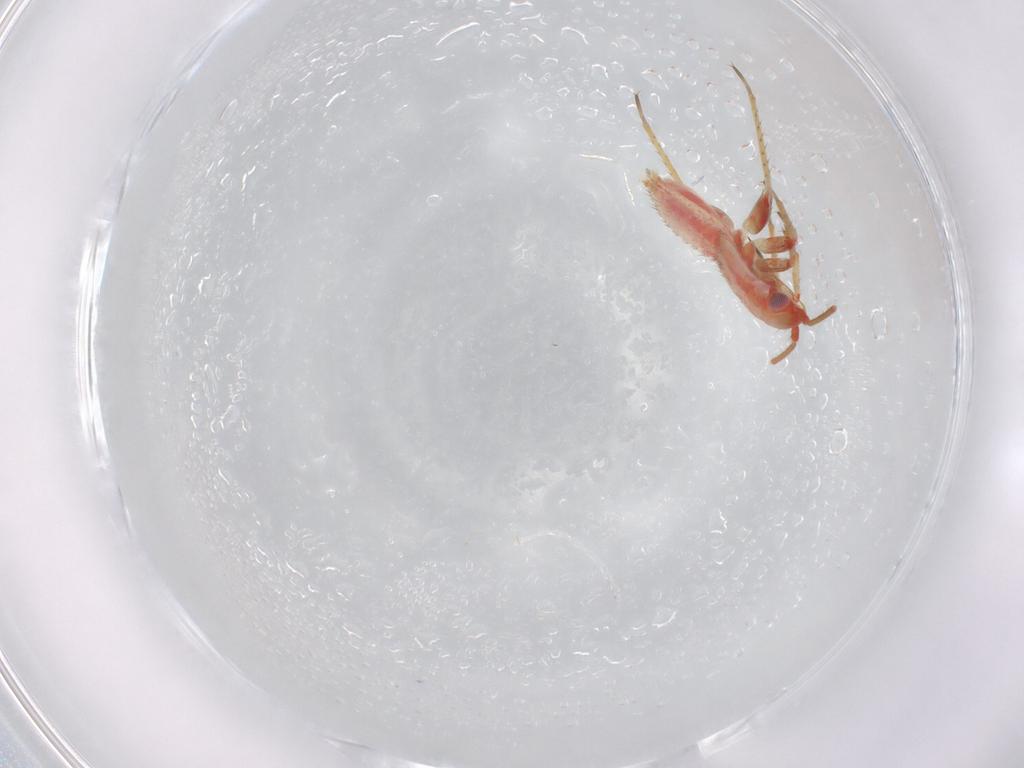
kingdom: Animalia
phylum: Arthropoda
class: Insecta
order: Hemiptera
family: Miridae
